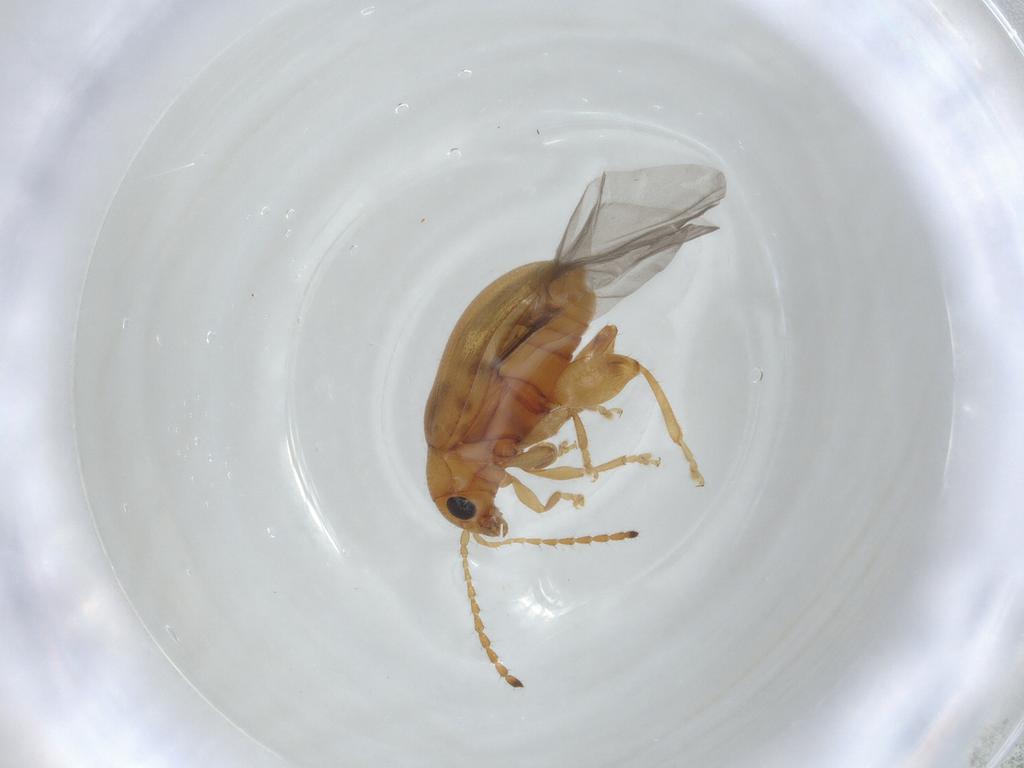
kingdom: Animalia
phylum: Arthropoda
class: Insecta
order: Coleoptera
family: Chrysomelidae
